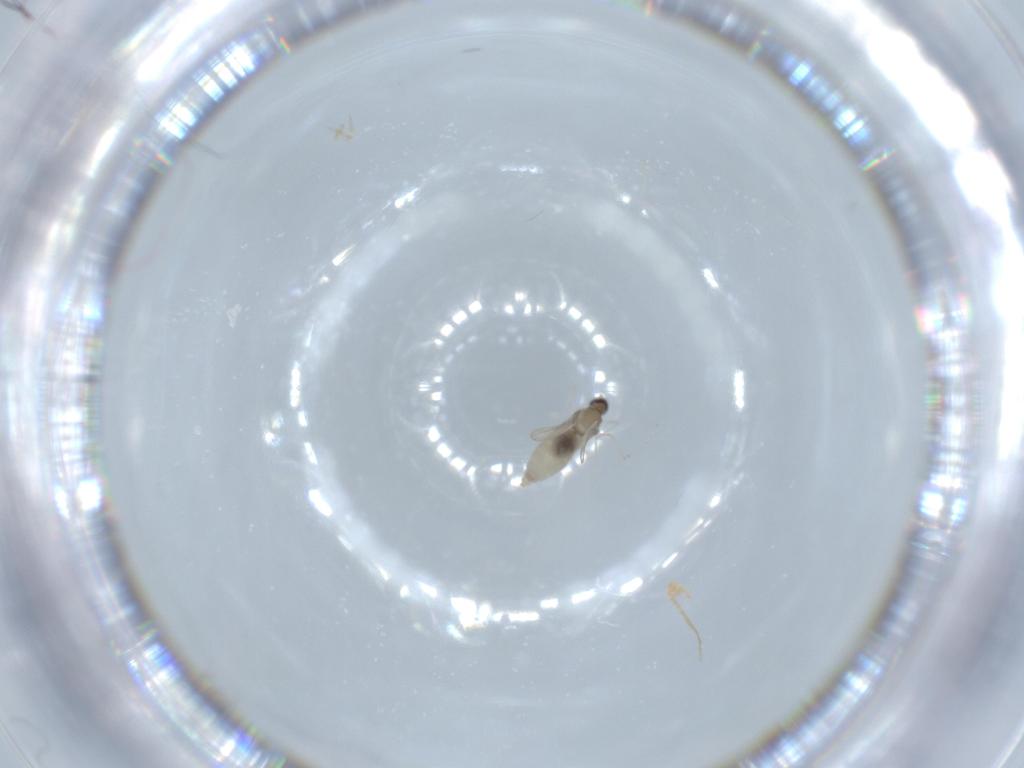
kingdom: Animalia
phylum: Arthropoda
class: Insecta
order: Diptera
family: Cecidomyiidae
